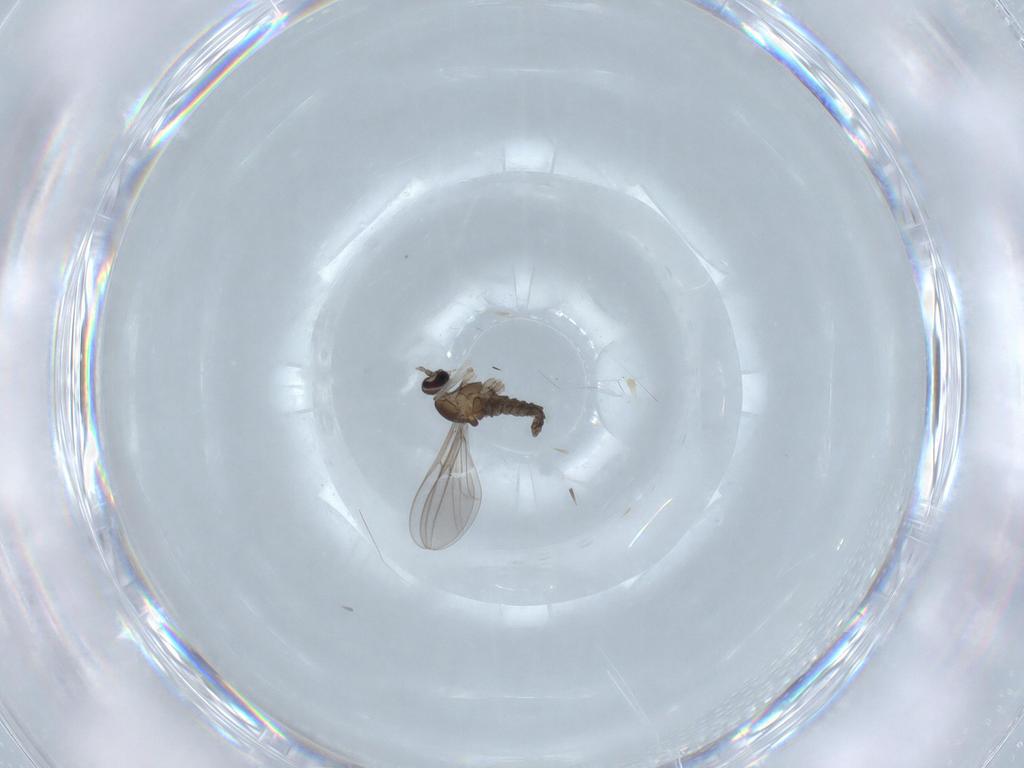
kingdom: Animalia
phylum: Arthropoda
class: Insecta
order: Diptera
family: Cecidomyiidae
